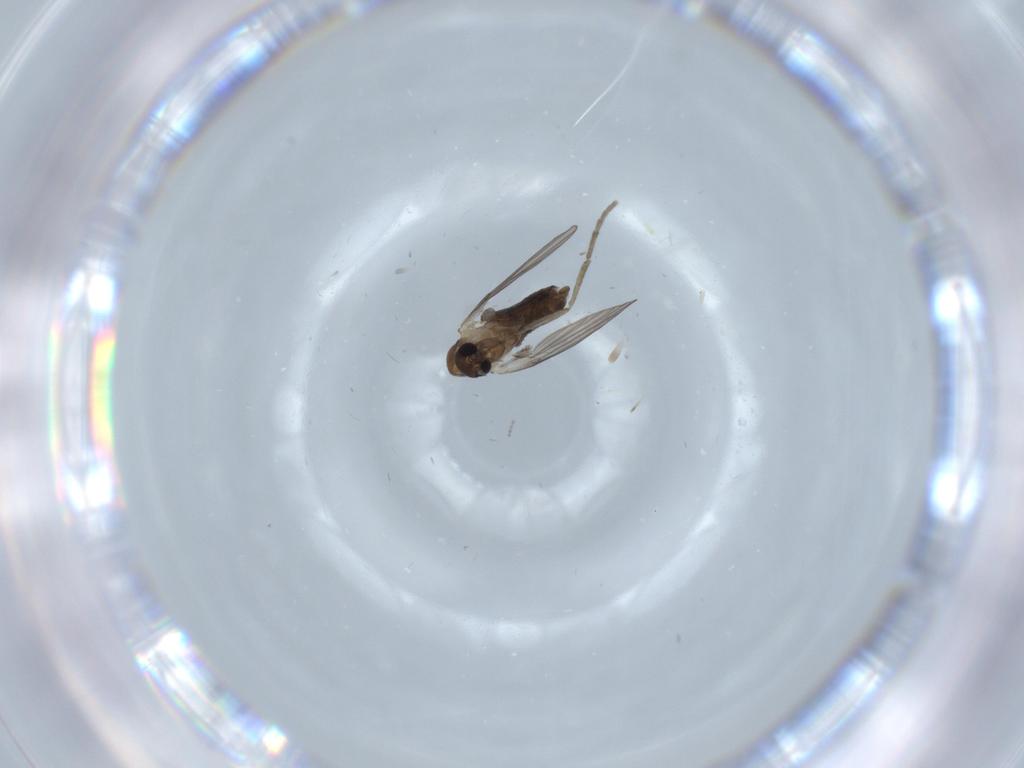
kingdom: Animalia
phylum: Arthropoda
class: Insecta
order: Diptera
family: Cecidomyiidae
